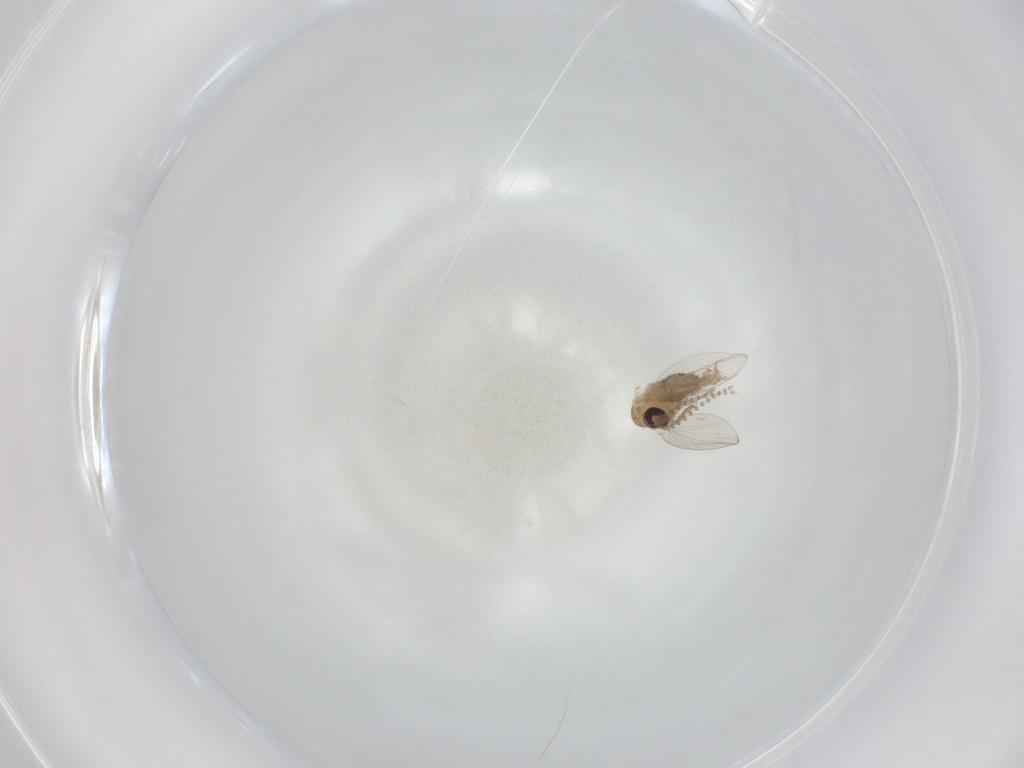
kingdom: Animalia
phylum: Arthropoda
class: Insecta
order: Diptera
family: Psychodidae
